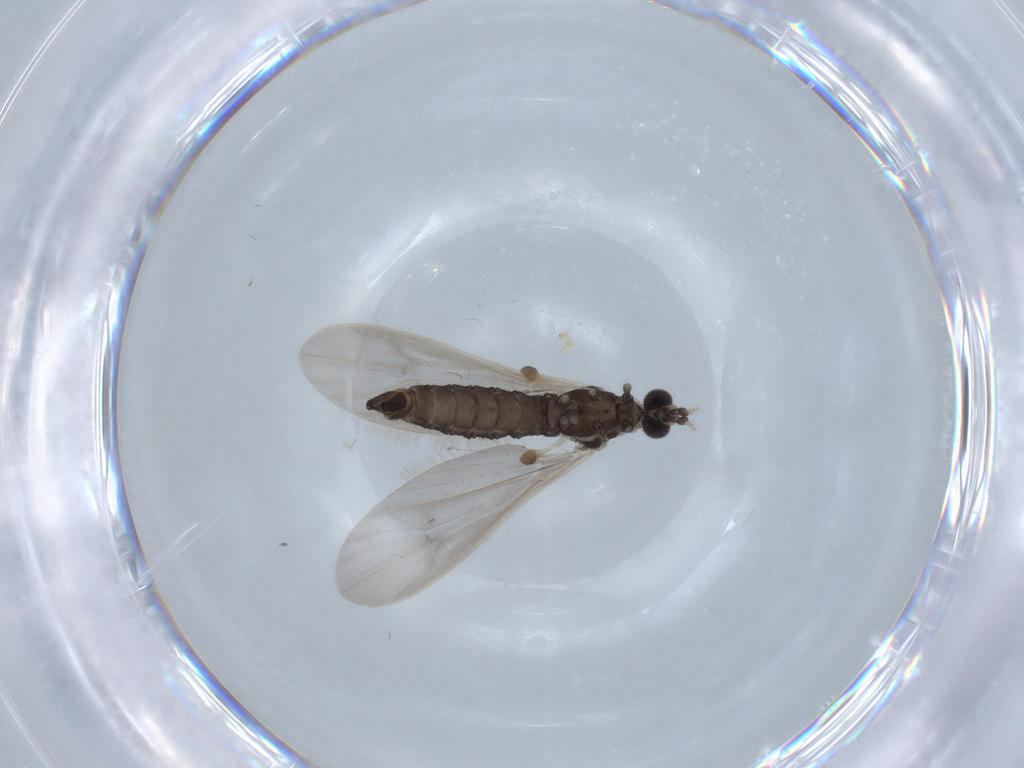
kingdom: Animalia
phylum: Arthropoda
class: Insecta
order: Diptera
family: Cecidomyiidae
